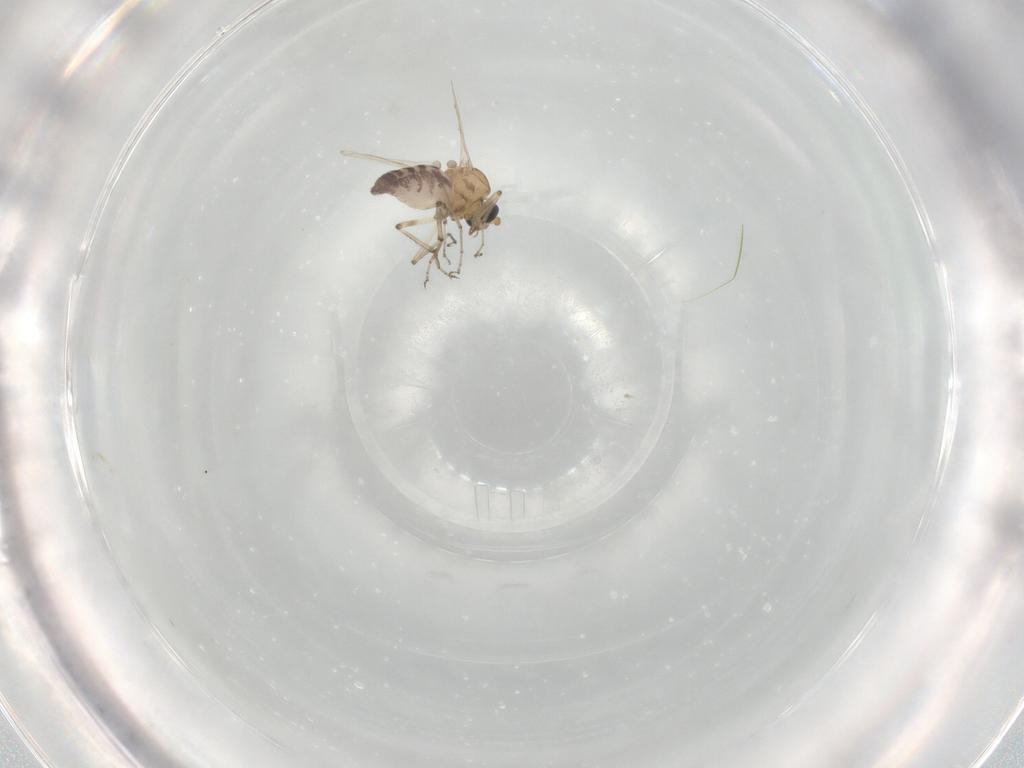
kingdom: Animalia
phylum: Arthropoda
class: Insecta
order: Diptera
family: Ceratopogonidae
